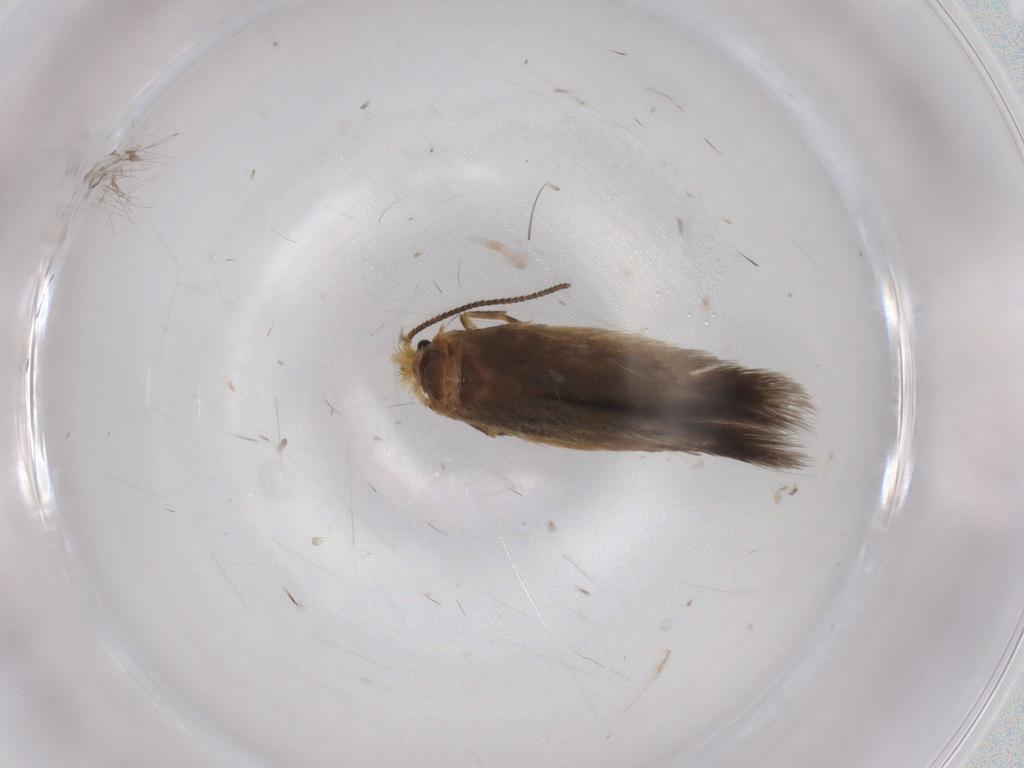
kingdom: Animalia
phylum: Arthropoda
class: Insecta
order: Lepidoptera
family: Nepticulidae
